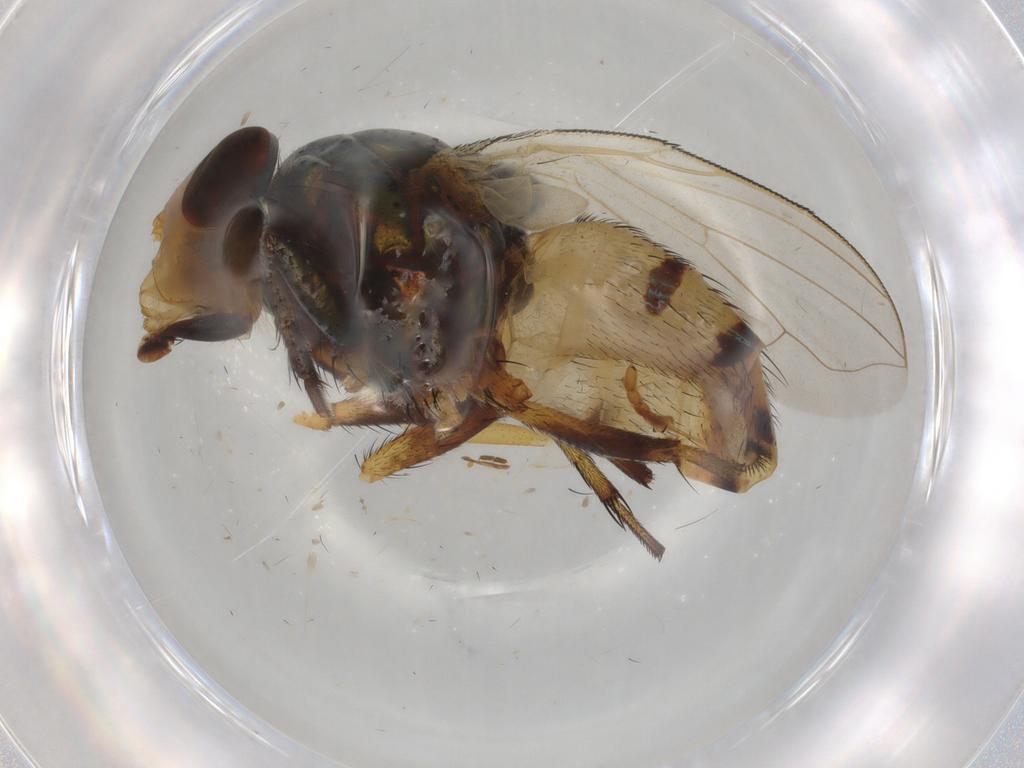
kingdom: Animalia
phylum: Arthropoda
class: Insecta
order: Diptera
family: Calliphoridae
